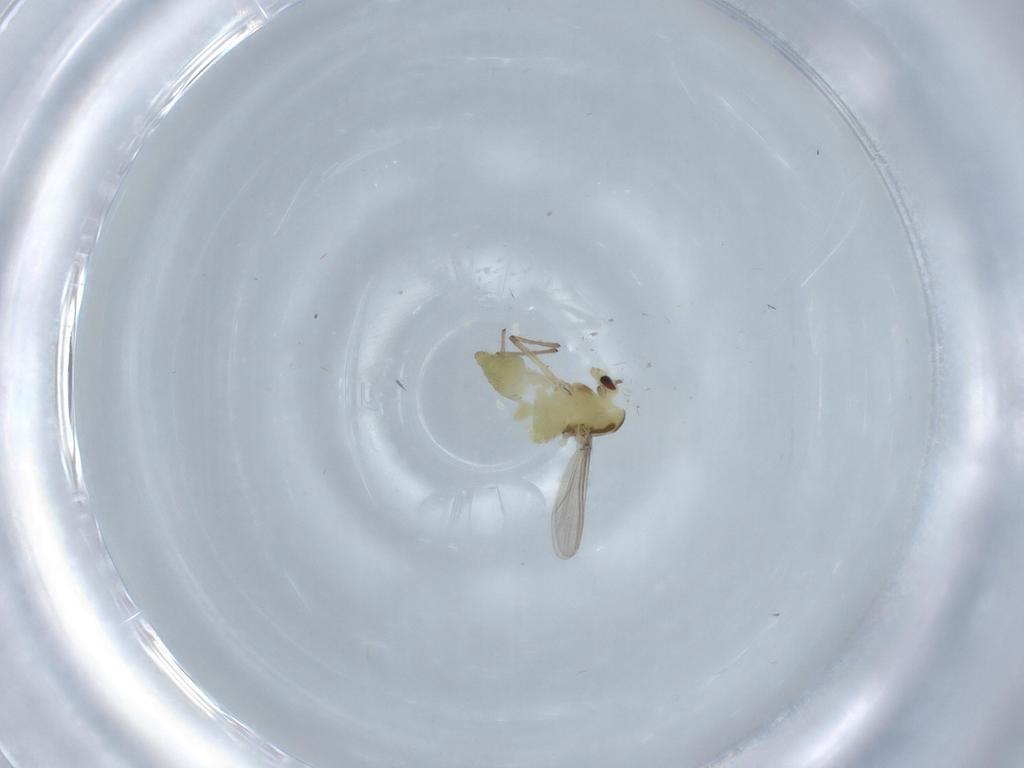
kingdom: Animalia
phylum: Arthropoda
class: Insecta
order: Diptera
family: Chironomidae
